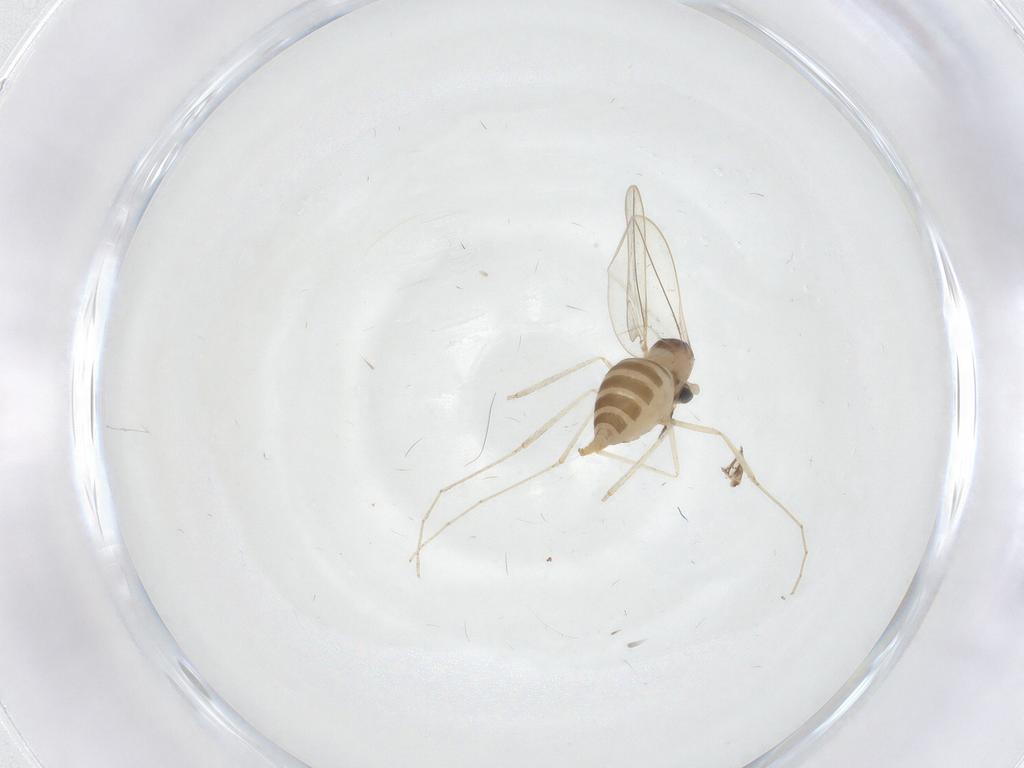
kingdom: Animalia
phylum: Arthropoda
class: Insecta
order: Diptera
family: Cecidomyiidae
